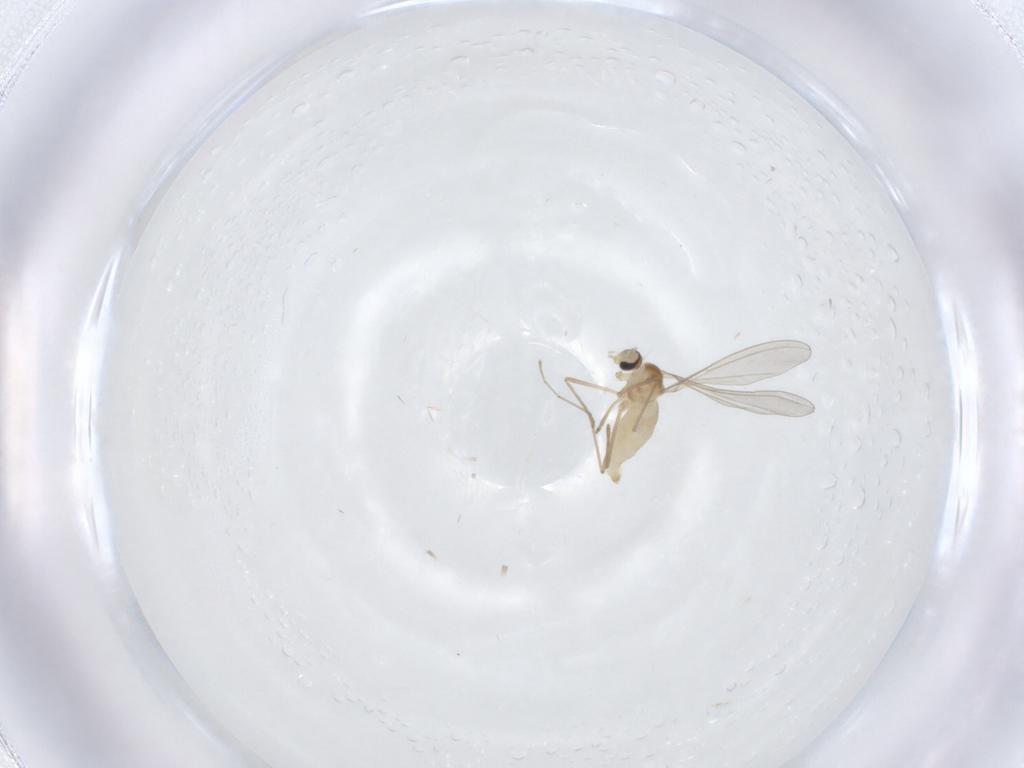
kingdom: Animalia
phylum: Arthropoda
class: Insecta
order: Diptera
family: Cecidomyiidae
